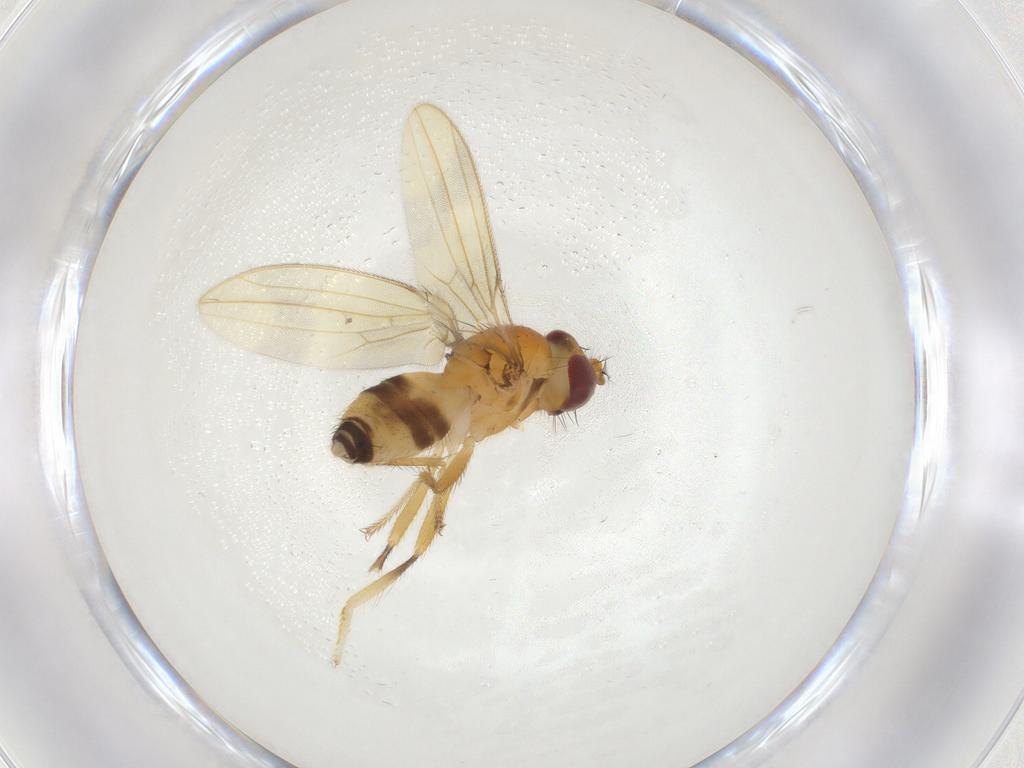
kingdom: Animalia
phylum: Arthropoda
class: Insecta
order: Diptera
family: Periscelididae
